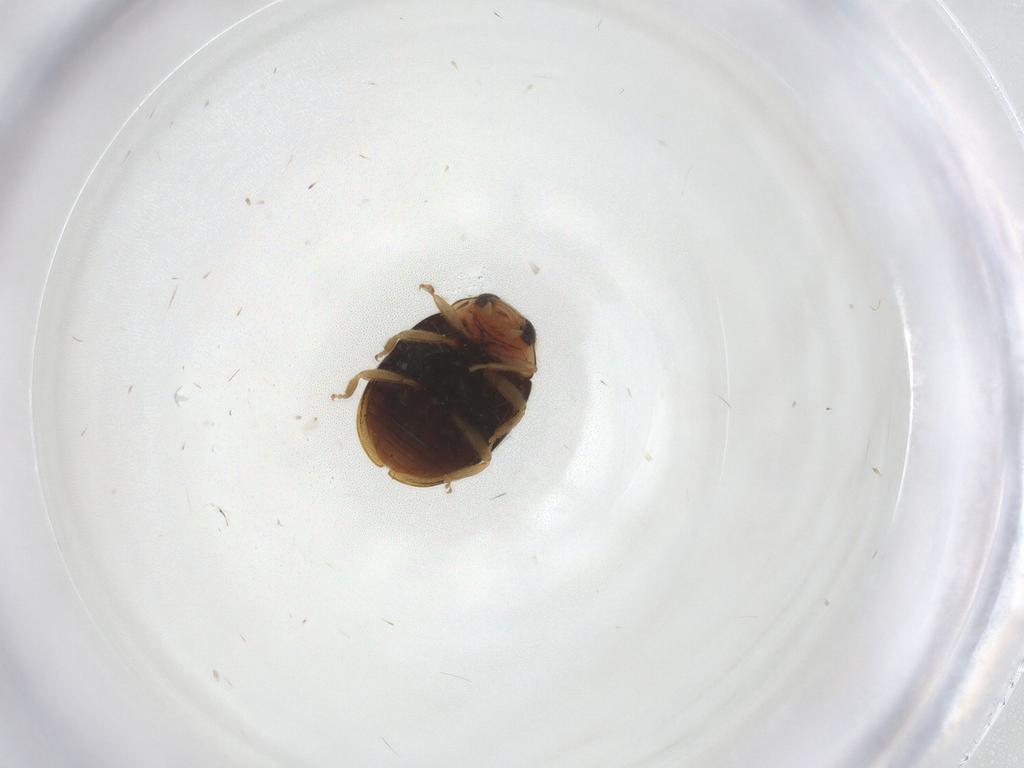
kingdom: Animalia
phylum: Arthropoda
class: Insecta
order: Coleoptera
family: Coccinellidae
